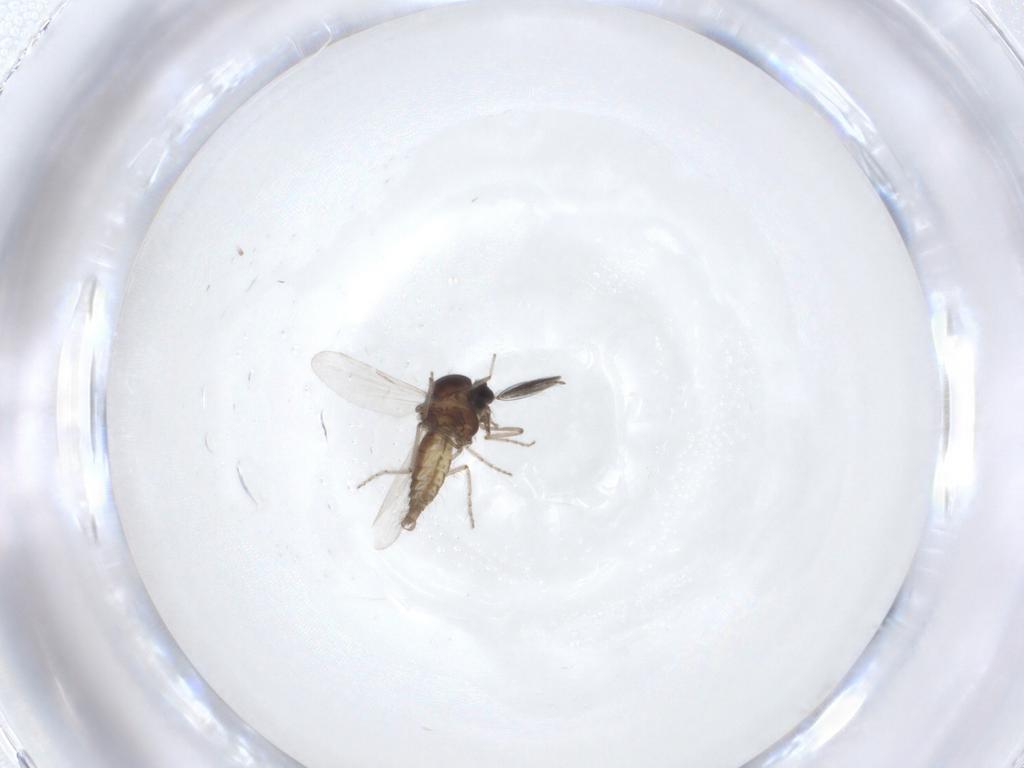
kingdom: Animalia
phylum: Arthropoda
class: Insecta
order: Diptera
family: Ceratopogonidae
